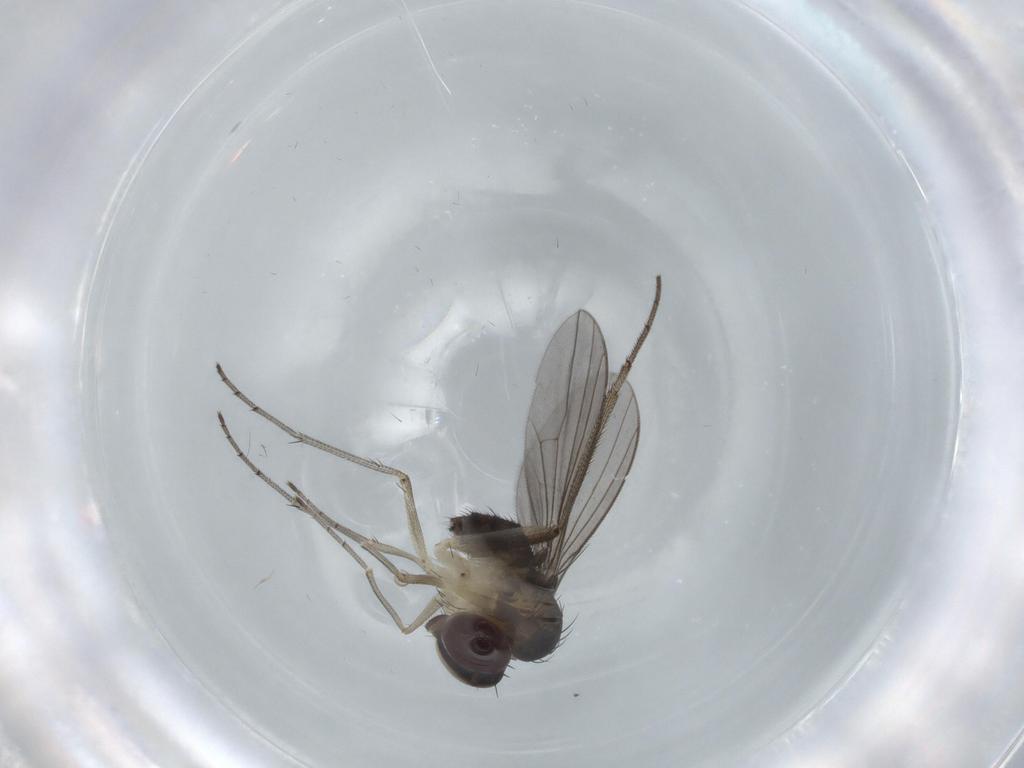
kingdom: Animalia
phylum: Arthropoda
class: Insecta
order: Diptera
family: Dolichopodidae
